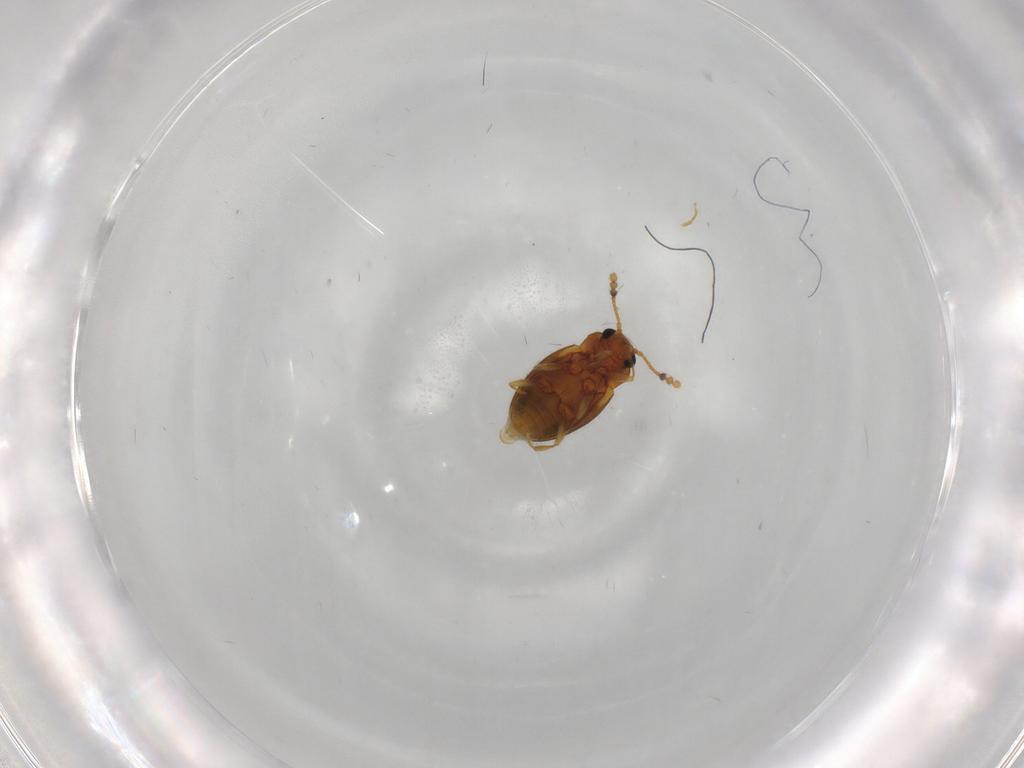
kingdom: Animalia
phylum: Arthropoda
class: Insecta
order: Coleoptera
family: Erotylidae
